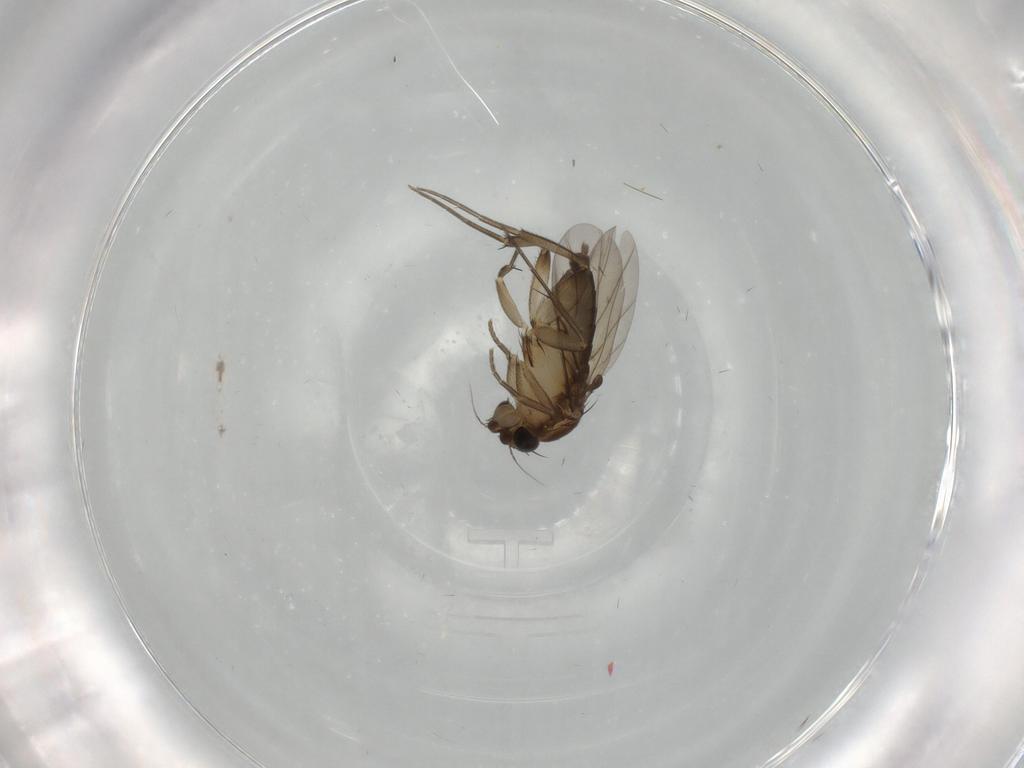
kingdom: Animalia
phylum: Arthropoda
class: Insecta
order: Diptera
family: Phoridae
